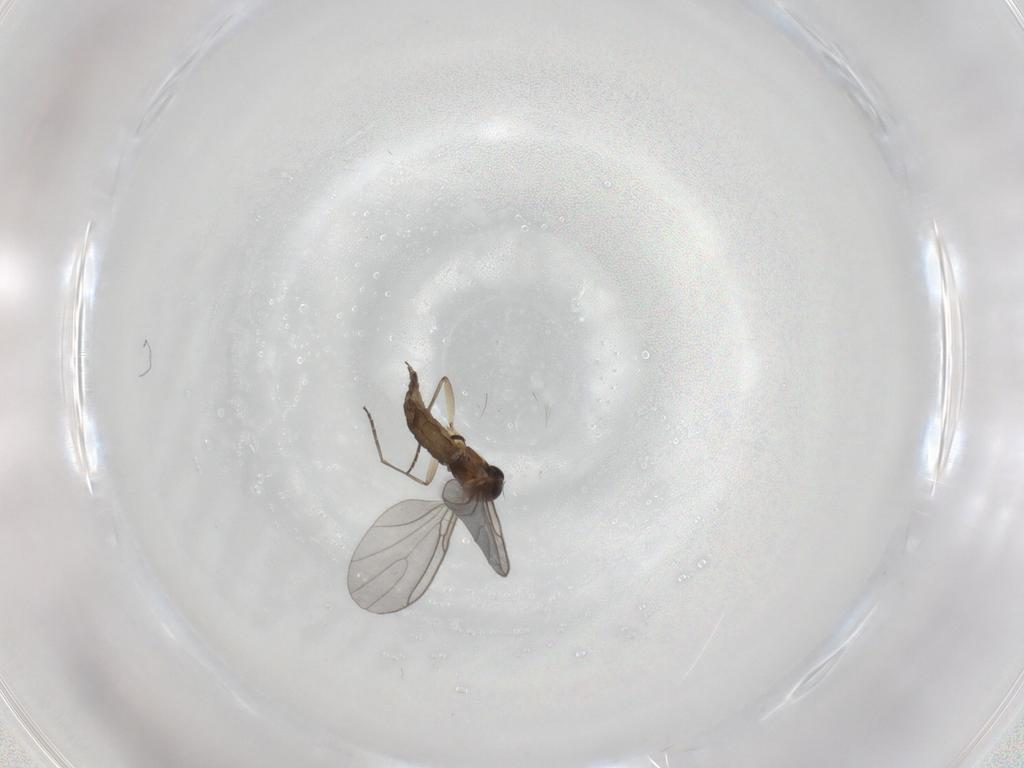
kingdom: Animalia
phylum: Arthropoda
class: Insecta
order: Diptera
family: Sciaridae
